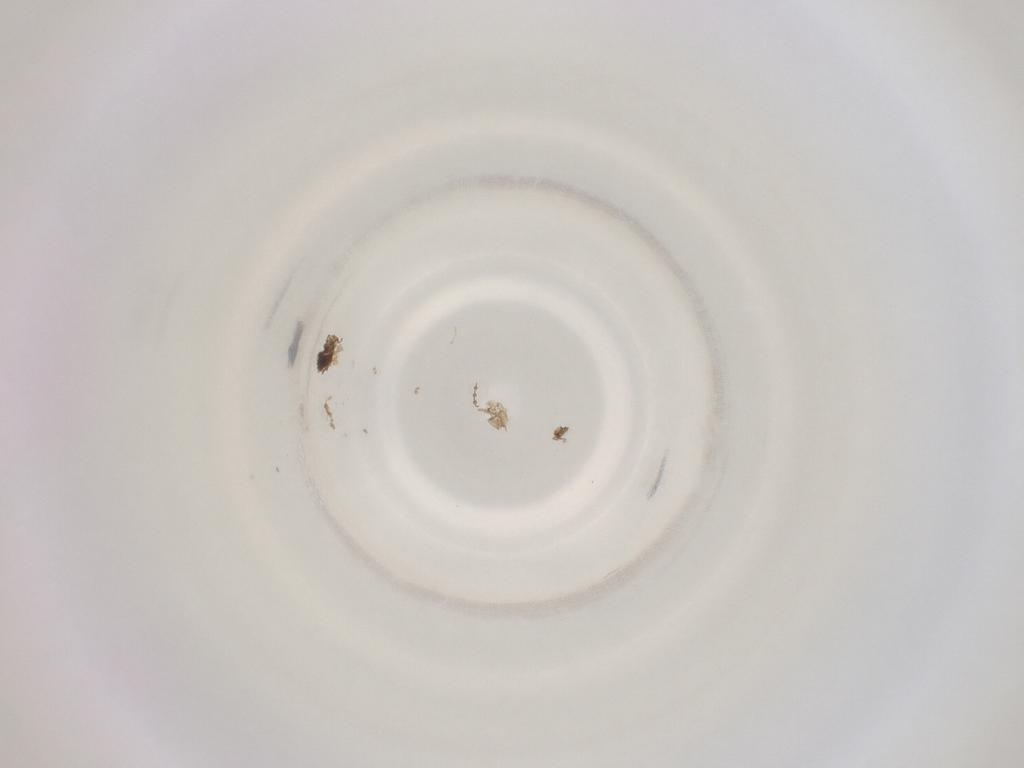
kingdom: Animalia
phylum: Arthropoda
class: Insecta
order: Diptera
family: Cecidomyiidae
